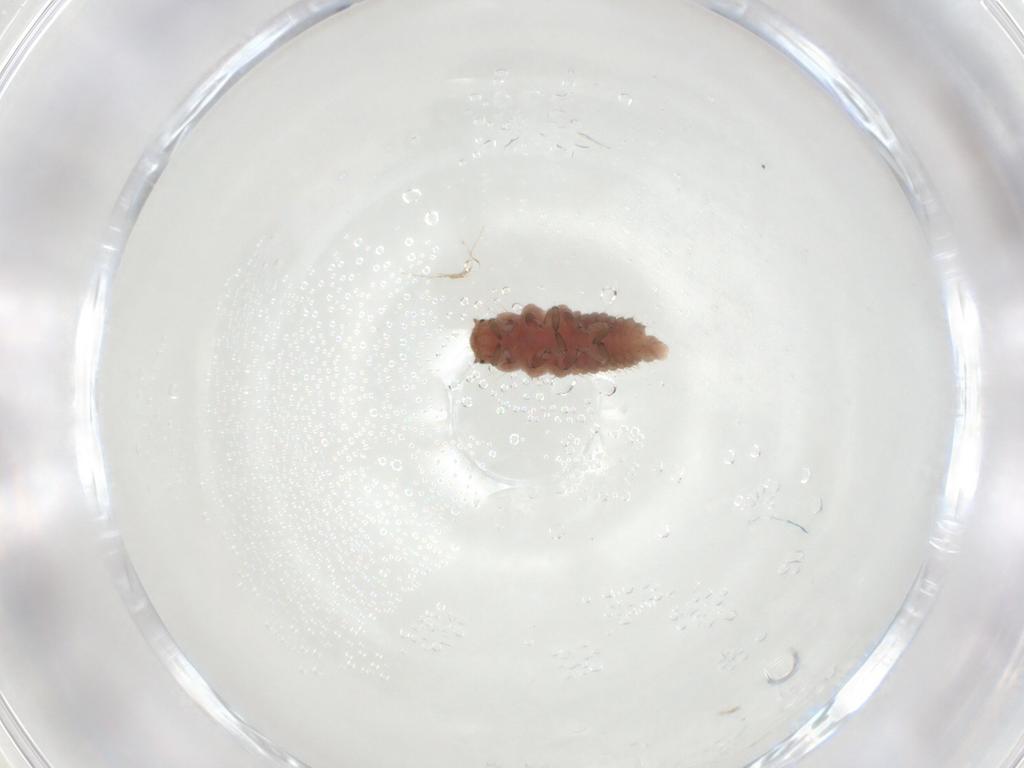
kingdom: Animalia
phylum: Arthropoda
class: Insecta
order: Coleoptera
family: Coccinellidae
